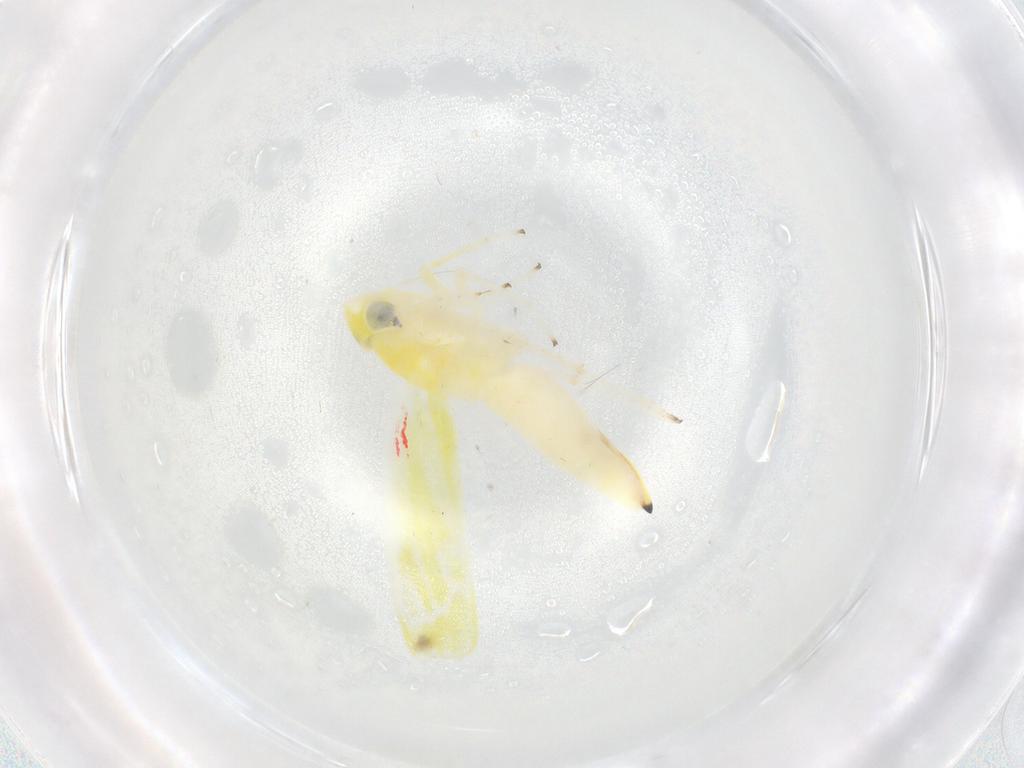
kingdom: Animalia
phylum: Arthropoda
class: Insecta
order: Hemiptera
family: Cicadellidae
